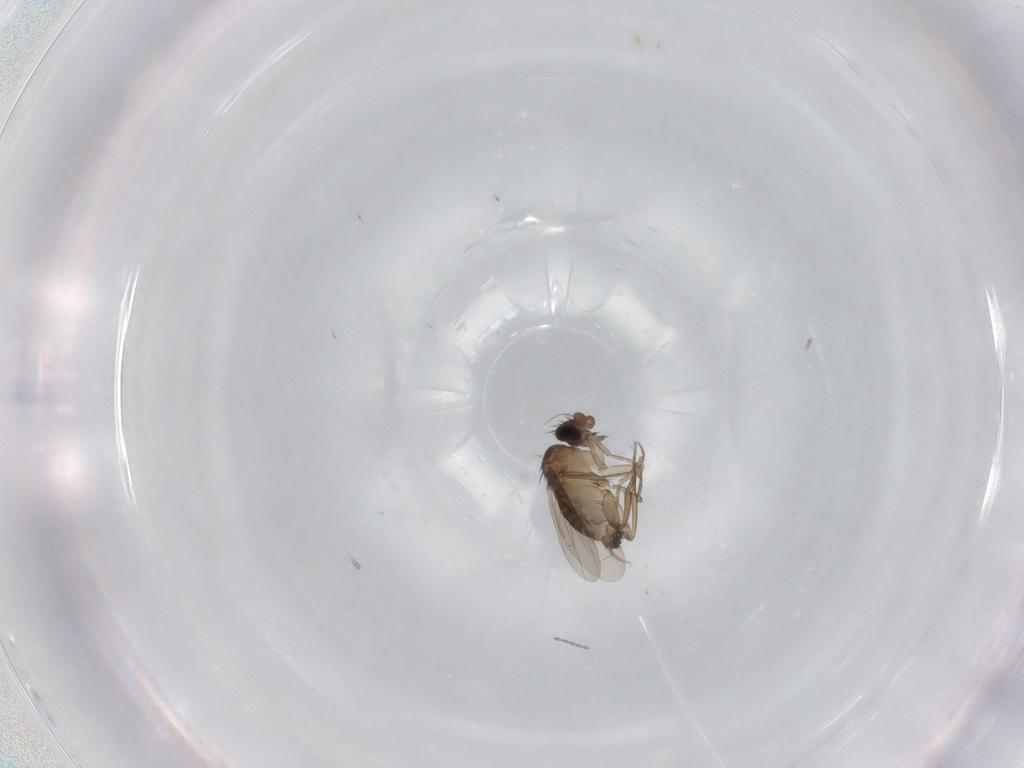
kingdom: Animalia
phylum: Arthropoda
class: Insecta
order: Diptera
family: Phoridae
